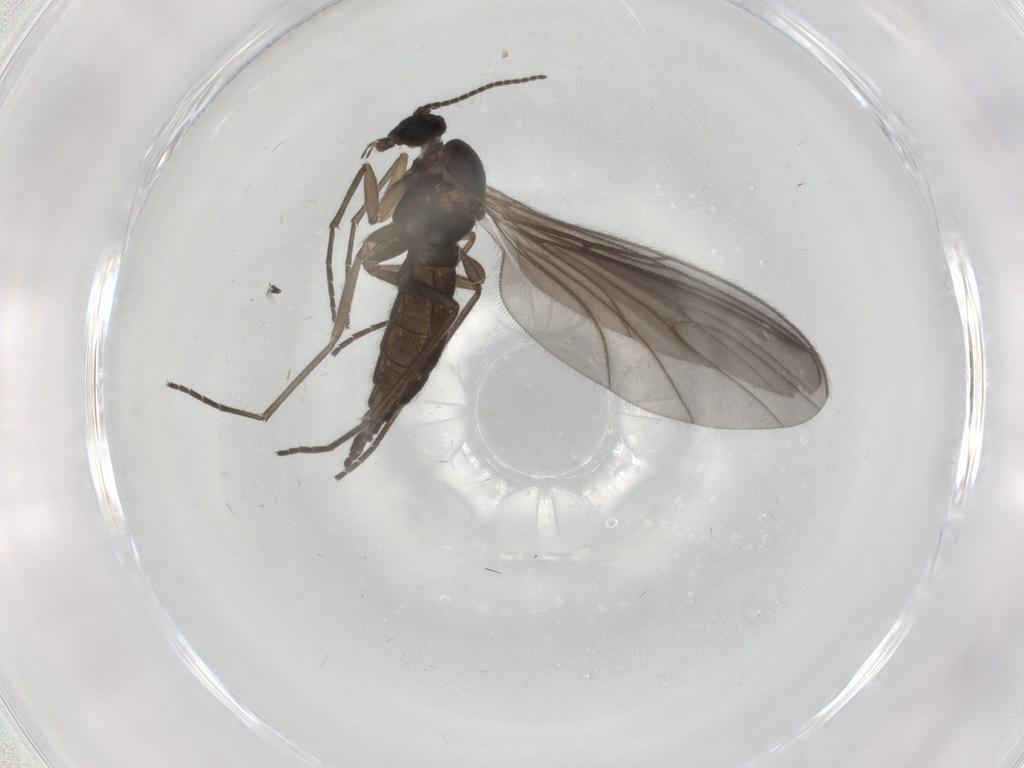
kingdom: Animalia
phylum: Arthropoda
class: Insecta
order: Diptera
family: Sciaridae
